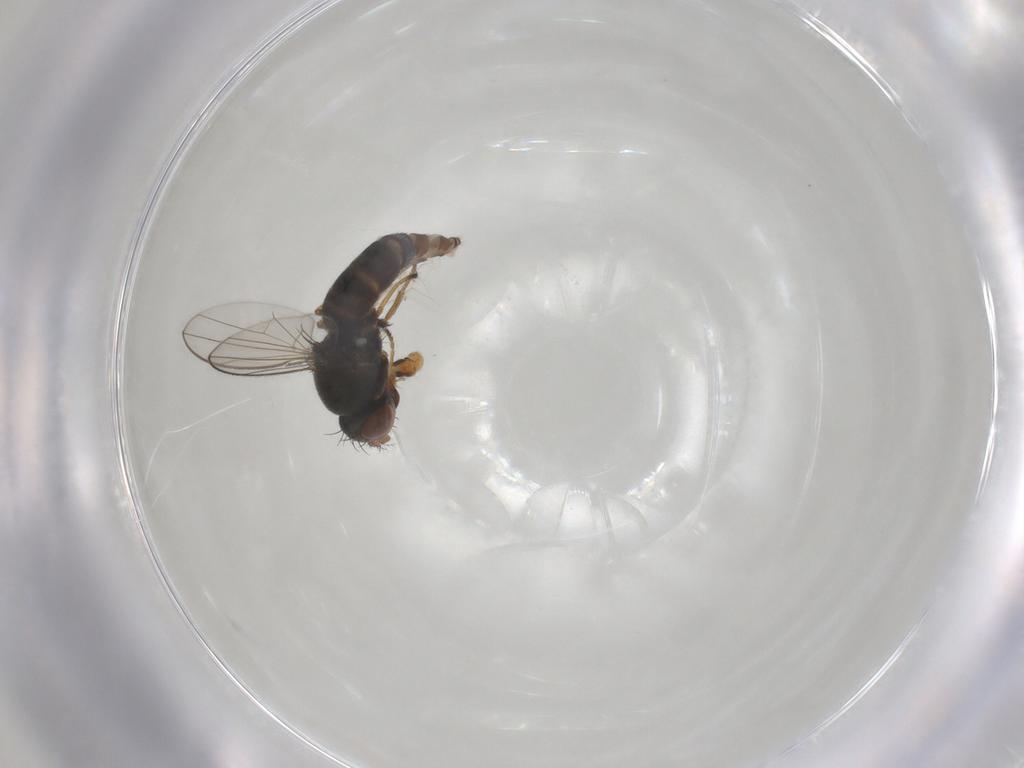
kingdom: Animalia
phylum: Arthropoda
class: Insecta
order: Diptera
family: Ephydridae
